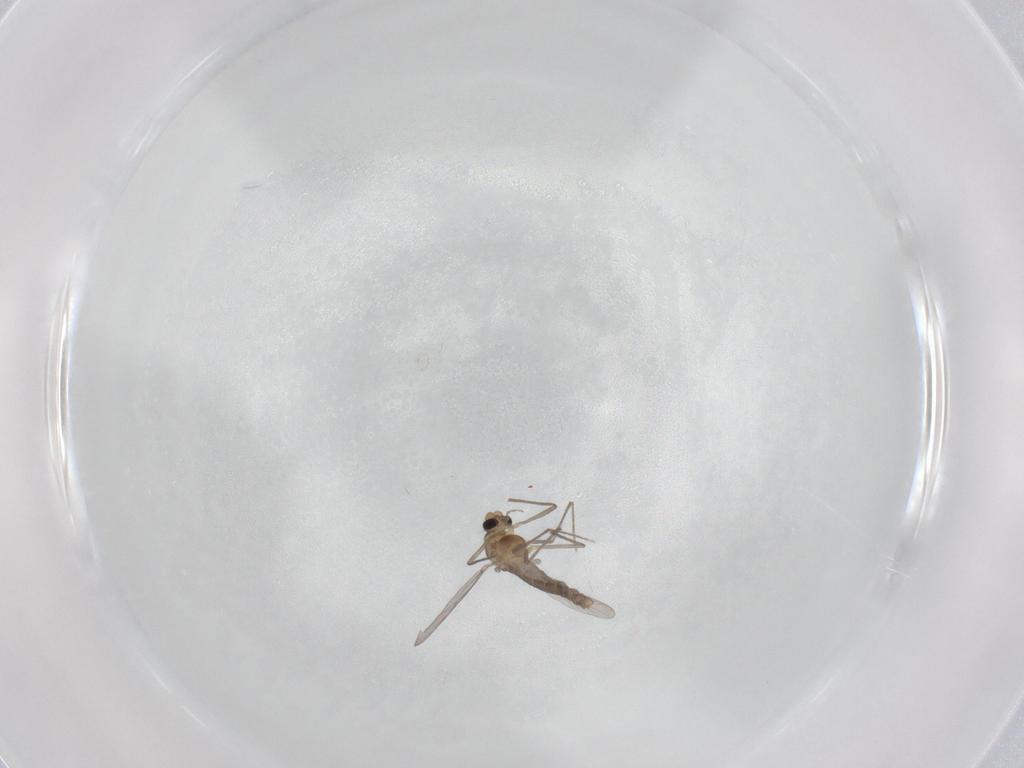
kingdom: Animalia
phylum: Arthropoda
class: Insecta
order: Diptera
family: Chironomidae
